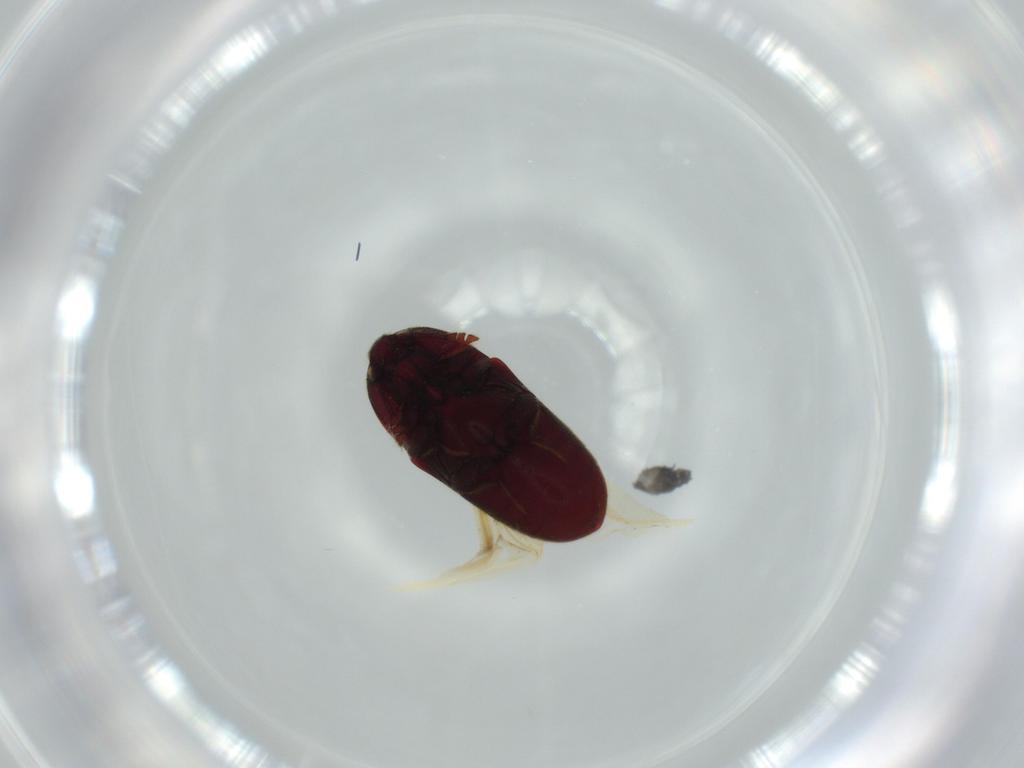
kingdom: Animalia
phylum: Arthropoda
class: Insecta
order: Coleoptera
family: Throscidae
